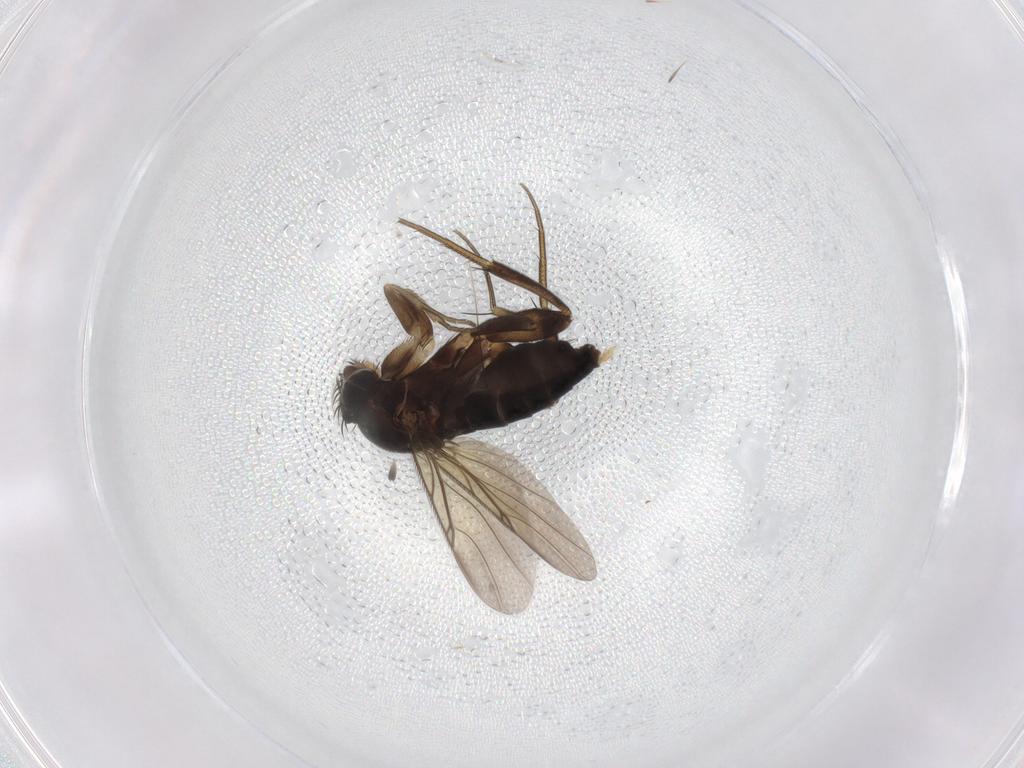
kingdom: Animalia
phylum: Arthropoda
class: Insecta
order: Diptera
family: Phoridae
